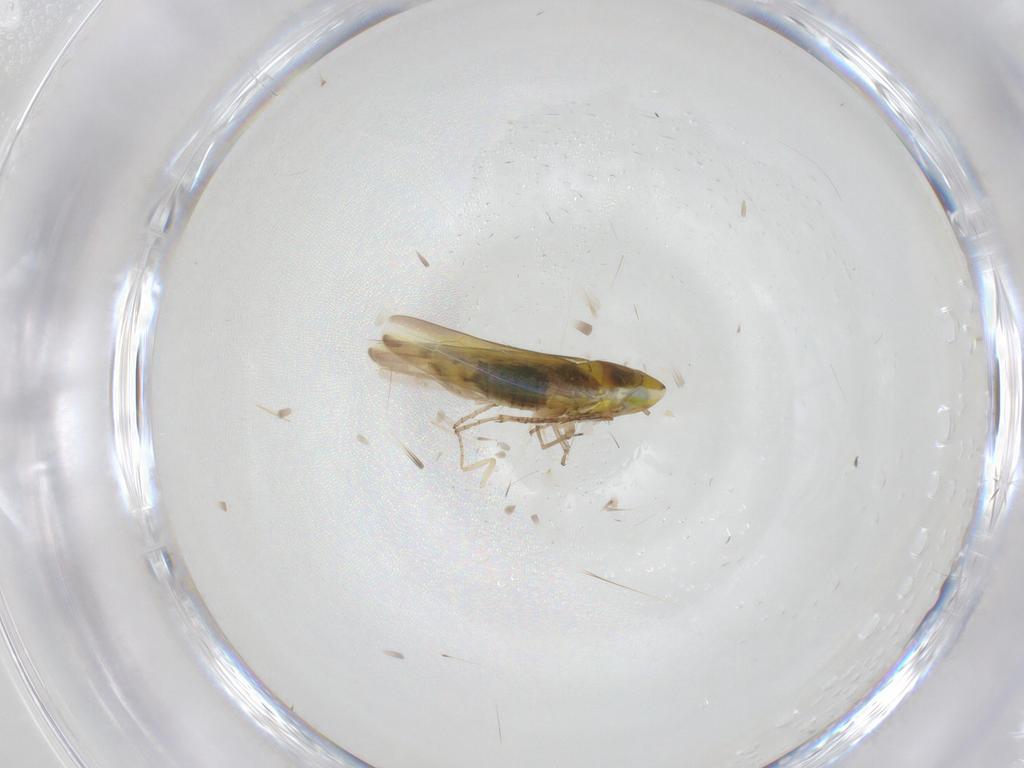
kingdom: Animalia
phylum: Arthropoda
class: Insecta
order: Hemiptera
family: Cicadellidae
